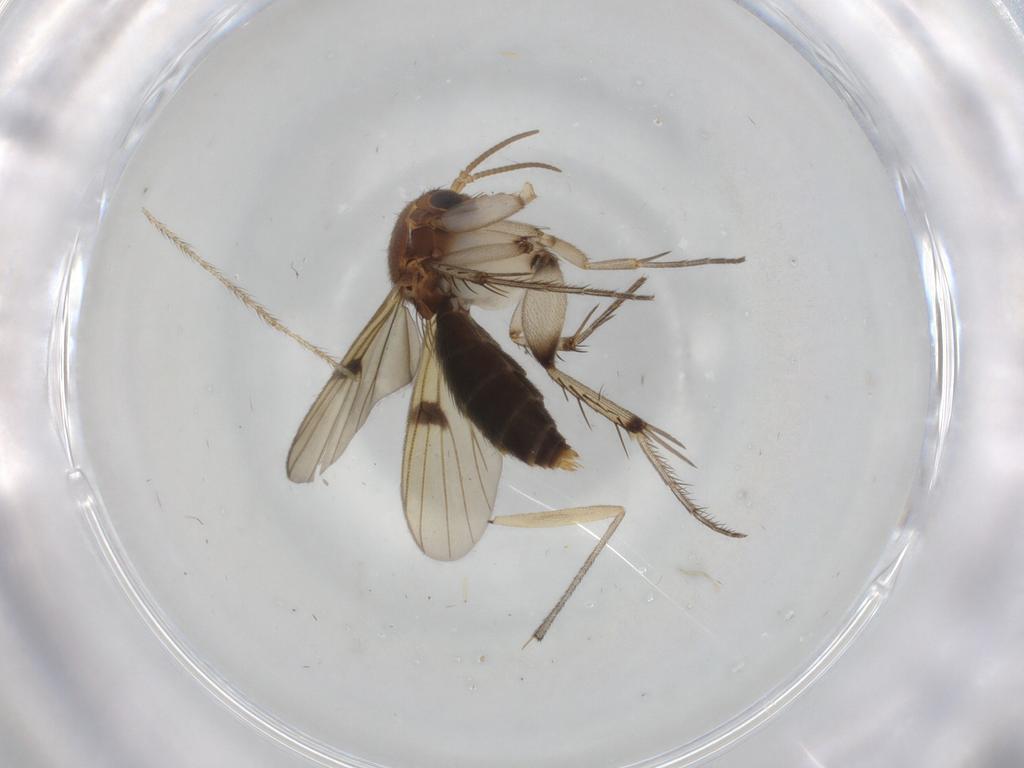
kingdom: Animalia
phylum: Arthropoda
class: Insecta
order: Diptera
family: Mycetophilidae
